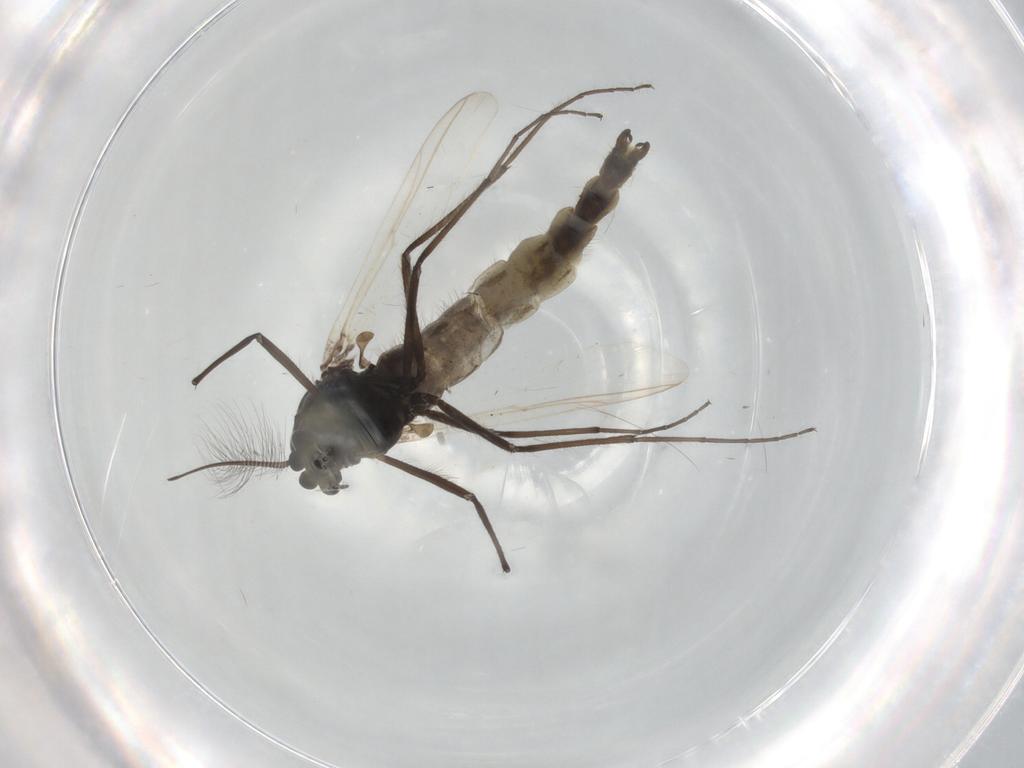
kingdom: Animalia
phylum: Arthropoda
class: Insecta
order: Diptera
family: Chironomidae
